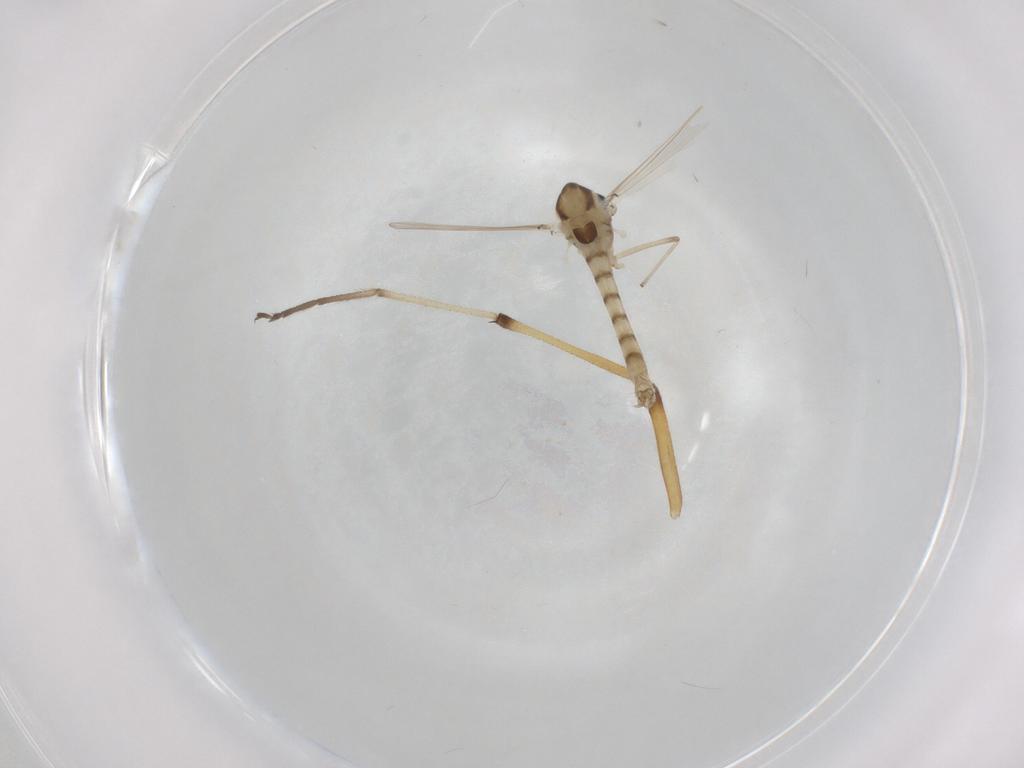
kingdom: Animalia
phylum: Arthropoda
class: Insecta
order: Diptera
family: Chironomidae
